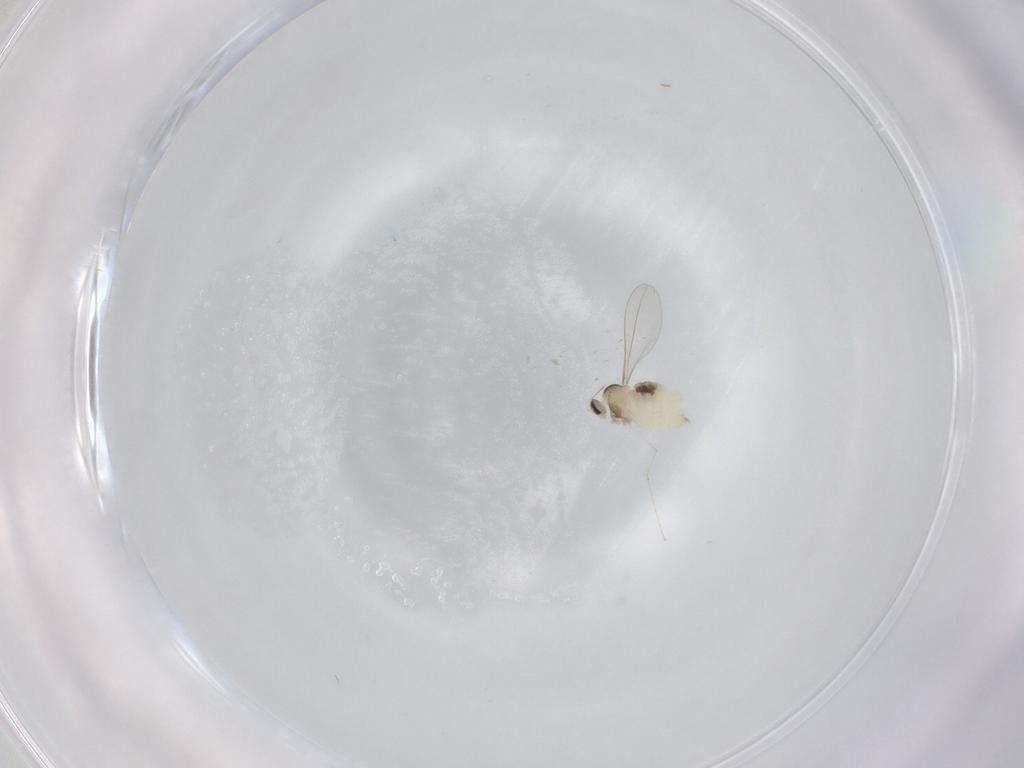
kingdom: Animalia
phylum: Arthropoda
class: Insecta
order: Diptera
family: Cecidomyiidae
